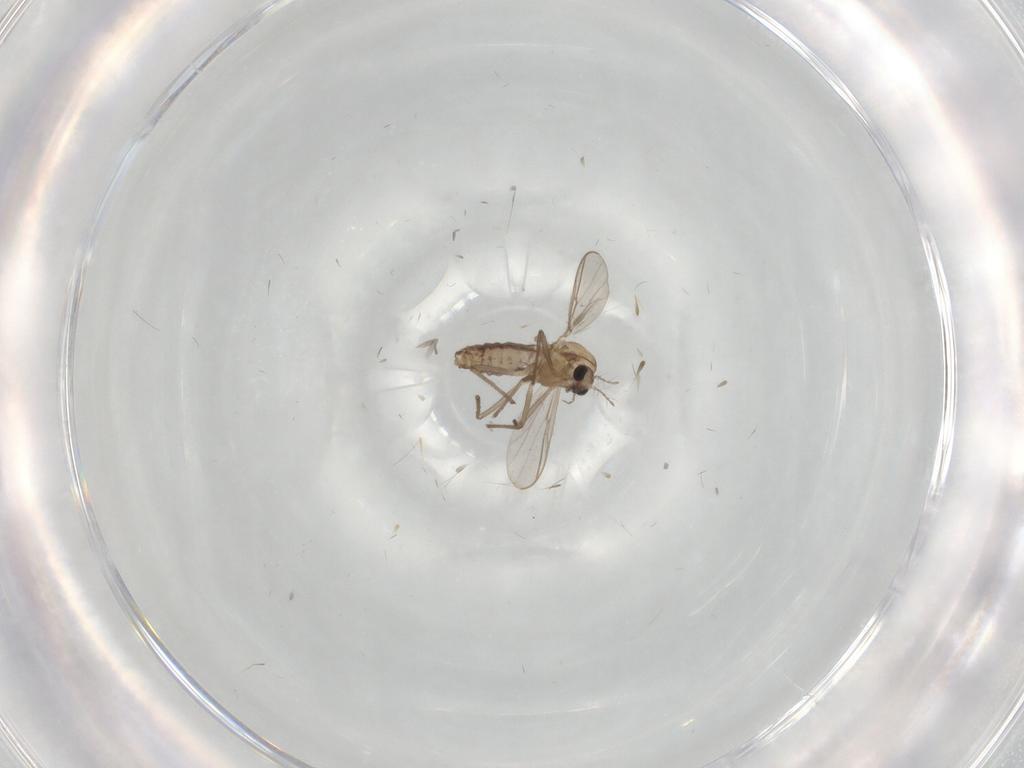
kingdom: Animalia
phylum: Arthropoda
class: Insecta
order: Diptera
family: Chironomidae
